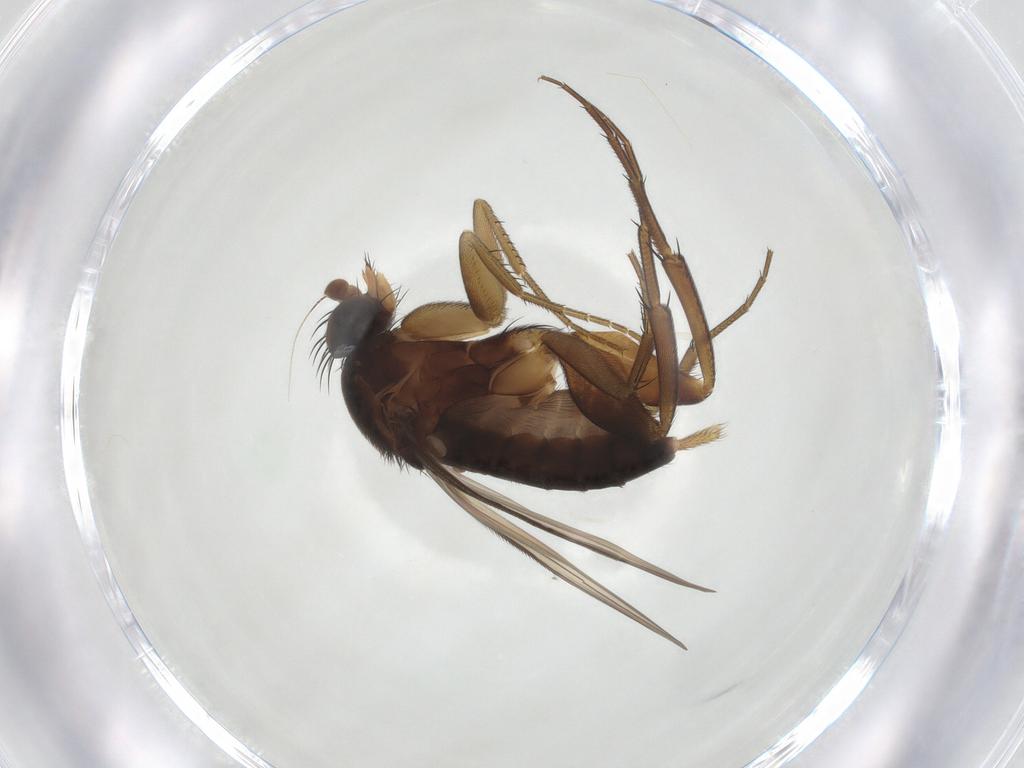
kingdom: Animalia
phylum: Arthropoda
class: Insecta
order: Diptera
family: Phoridae
